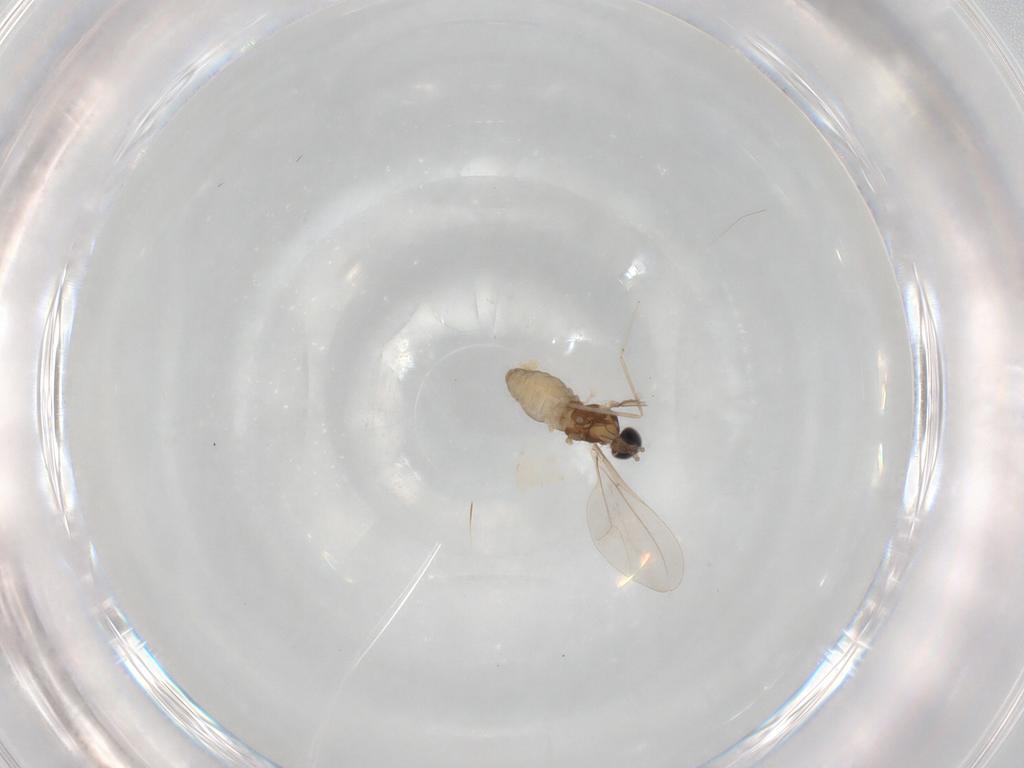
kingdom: Animalia
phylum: Arthropoda
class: Insecta
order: Diptera
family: Cecidomyiidae
